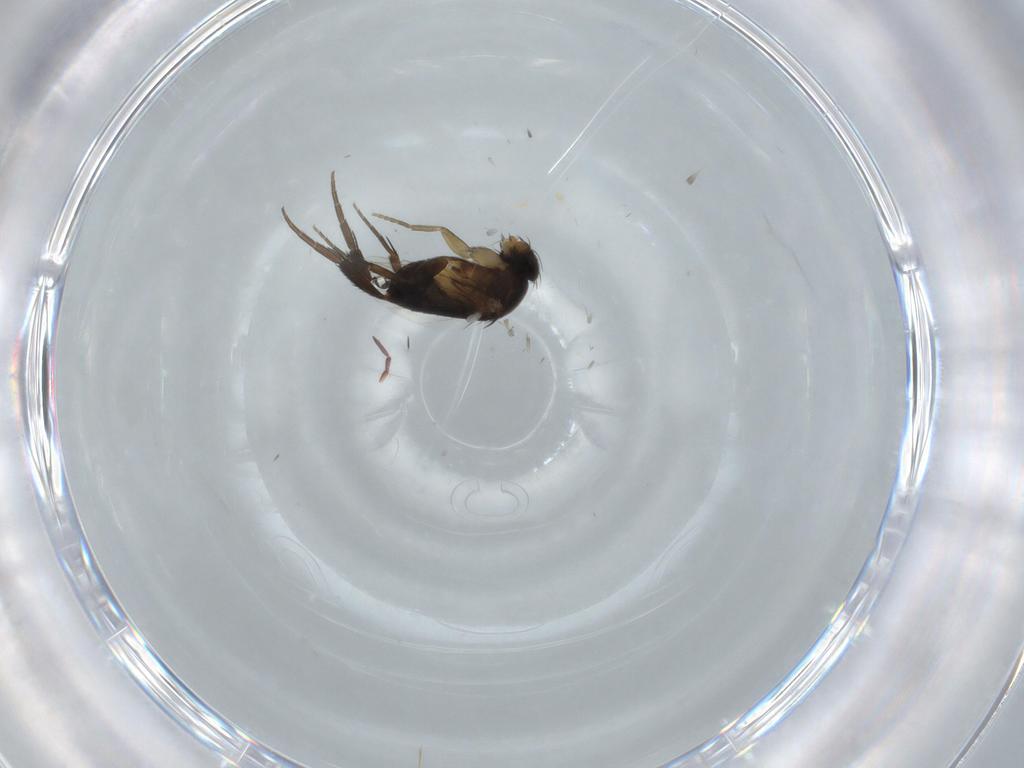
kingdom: Animalia
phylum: Arthropoda
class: Insecta
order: Diptera
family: Phoridae
